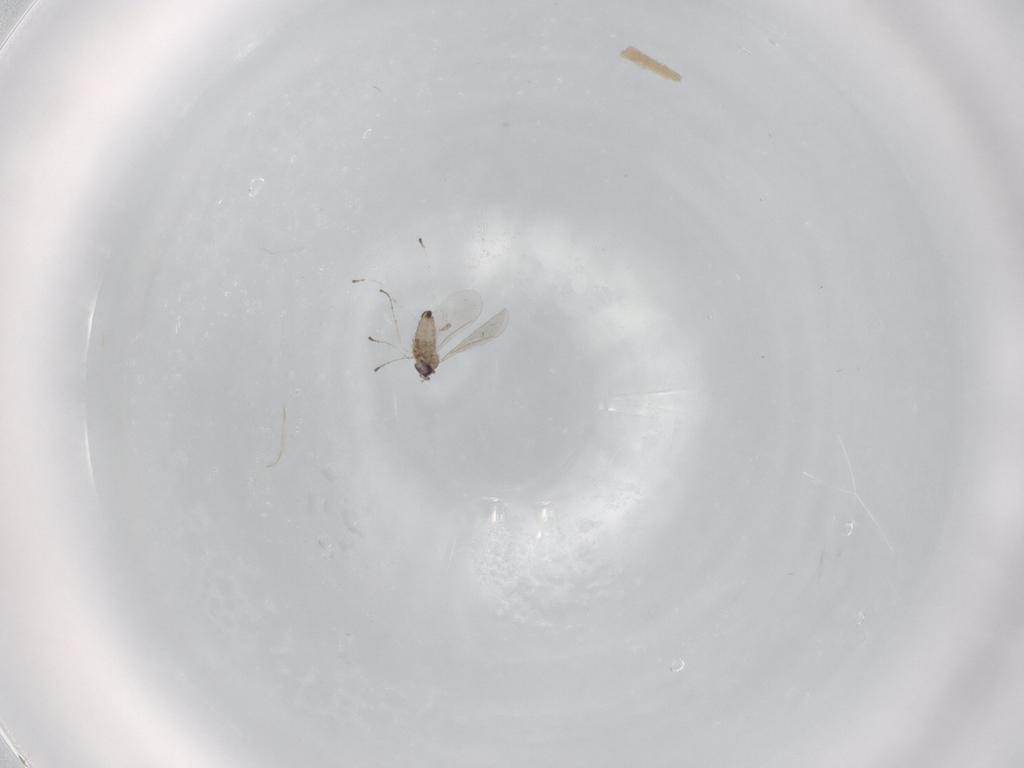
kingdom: Animalia
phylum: Arthropoda
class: Insecta
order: Diptera
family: Cecidomyiidae
